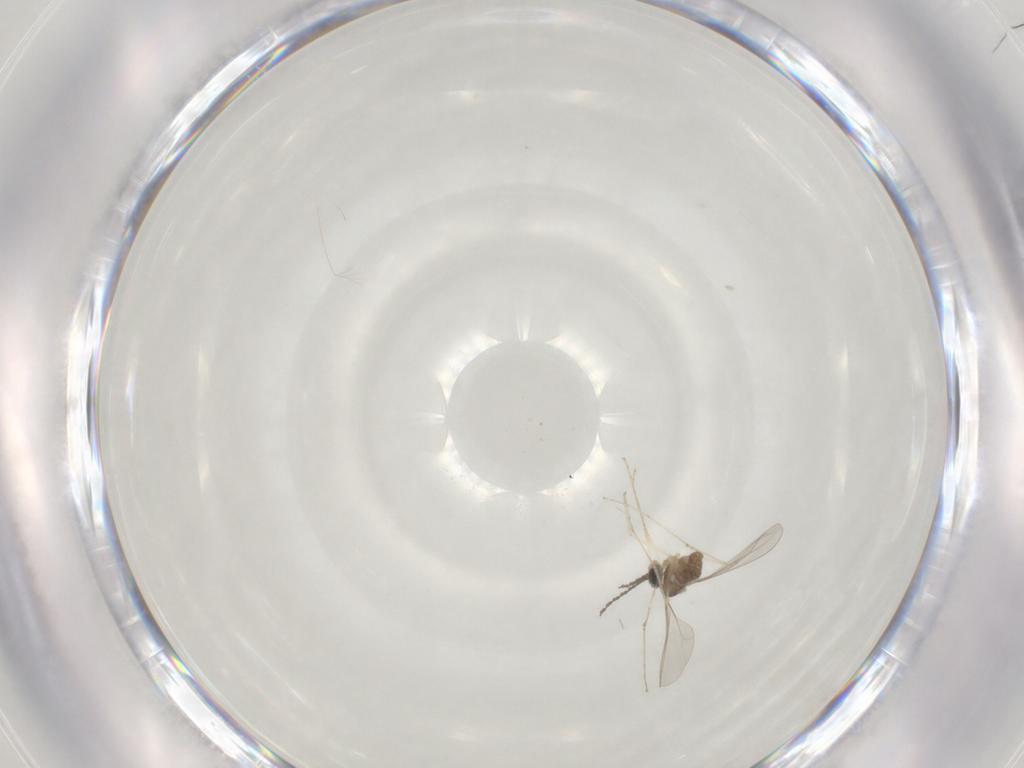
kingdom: Animalia
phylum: Arthropoda
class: Insecta
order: Diptera
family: Cecidomyiidae
